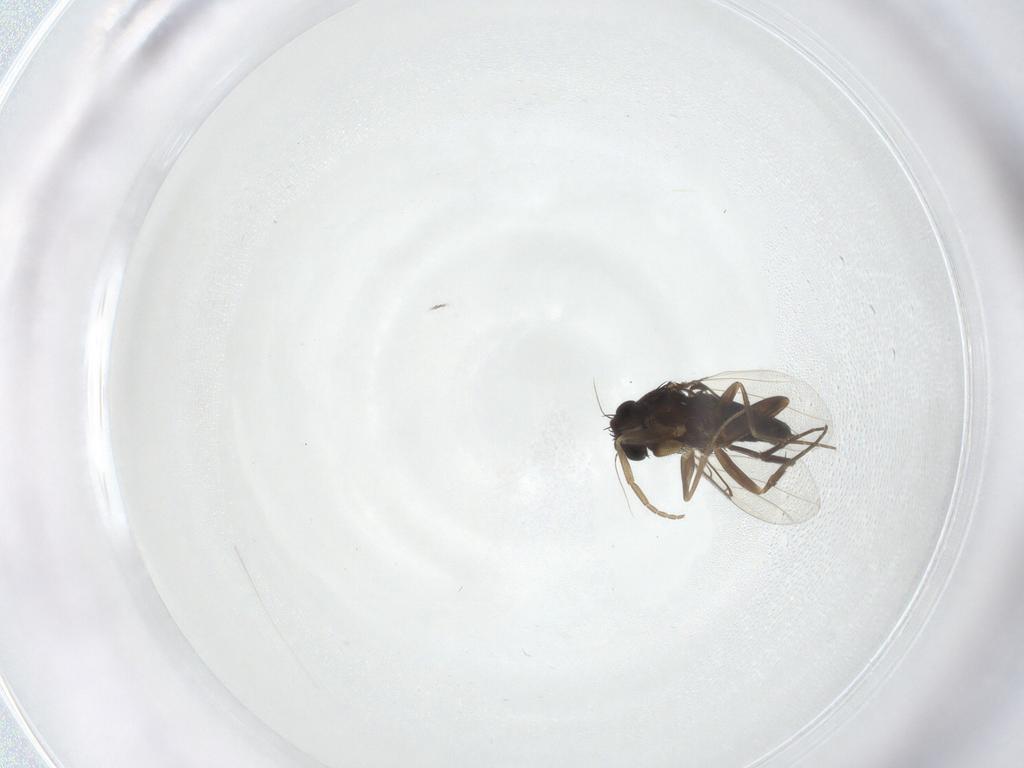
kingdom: Animalia
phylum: Arthropoda
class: Insecta
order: Diptera
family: Phoridae
